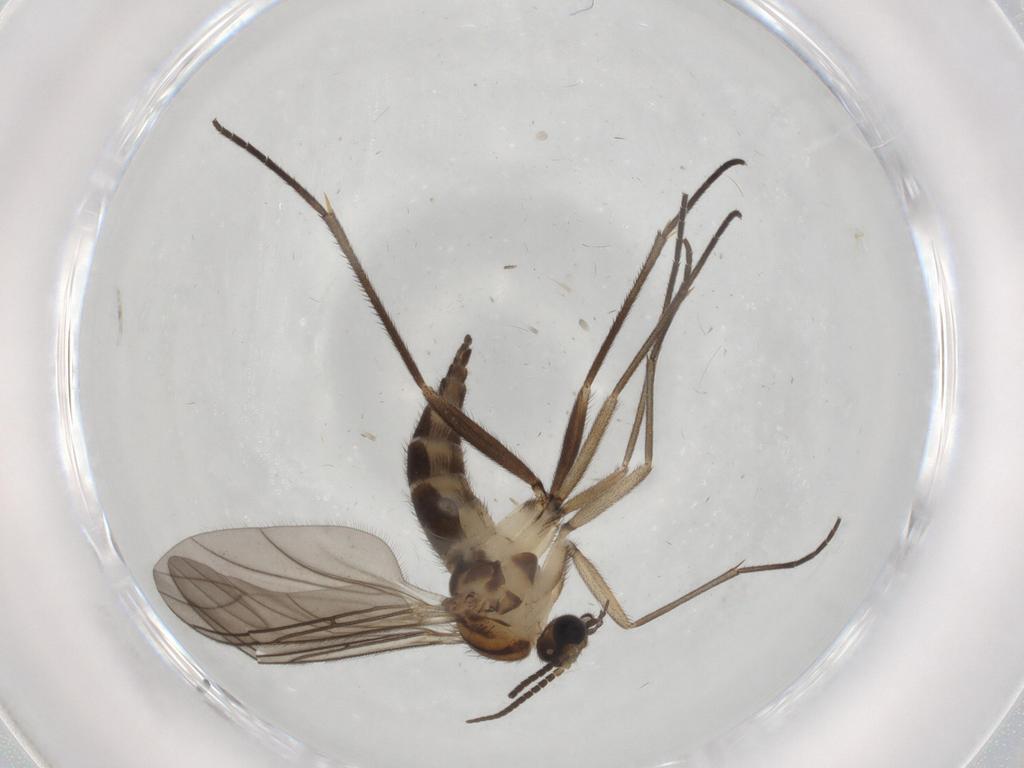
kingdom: Animalia
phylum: Arthropoda
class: Insecta
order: Diptera
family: Sciaridae
